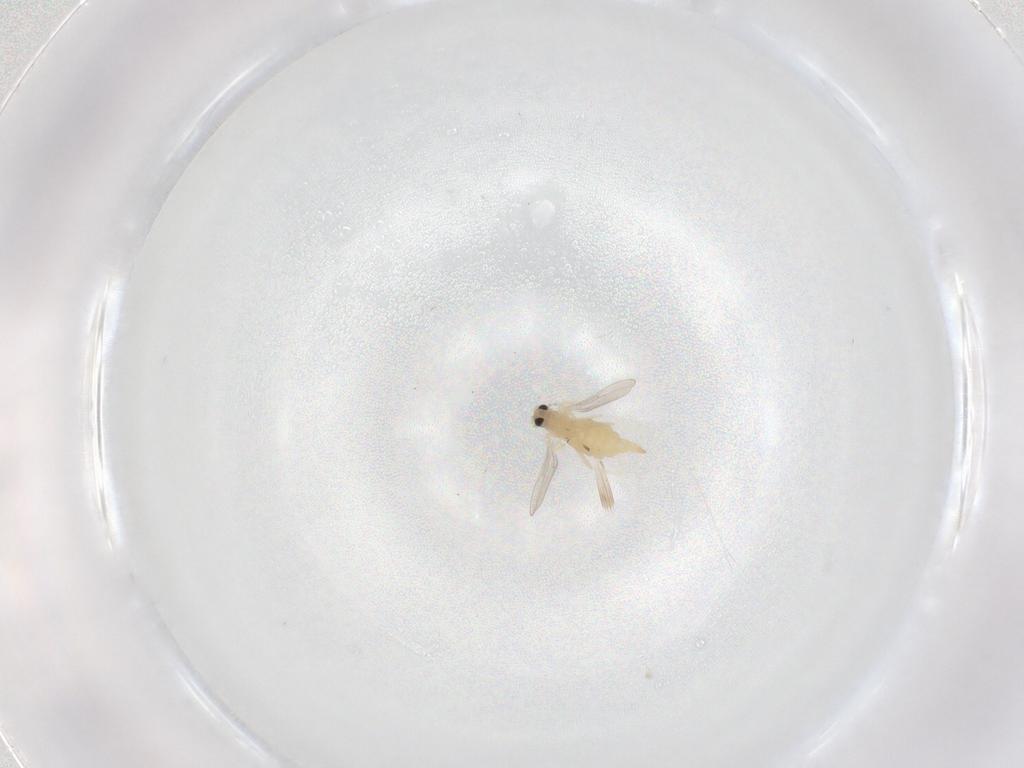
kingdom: Animalia
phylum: Arthropoda
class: Insecta
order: Diptera
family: Cecidomyiidae
